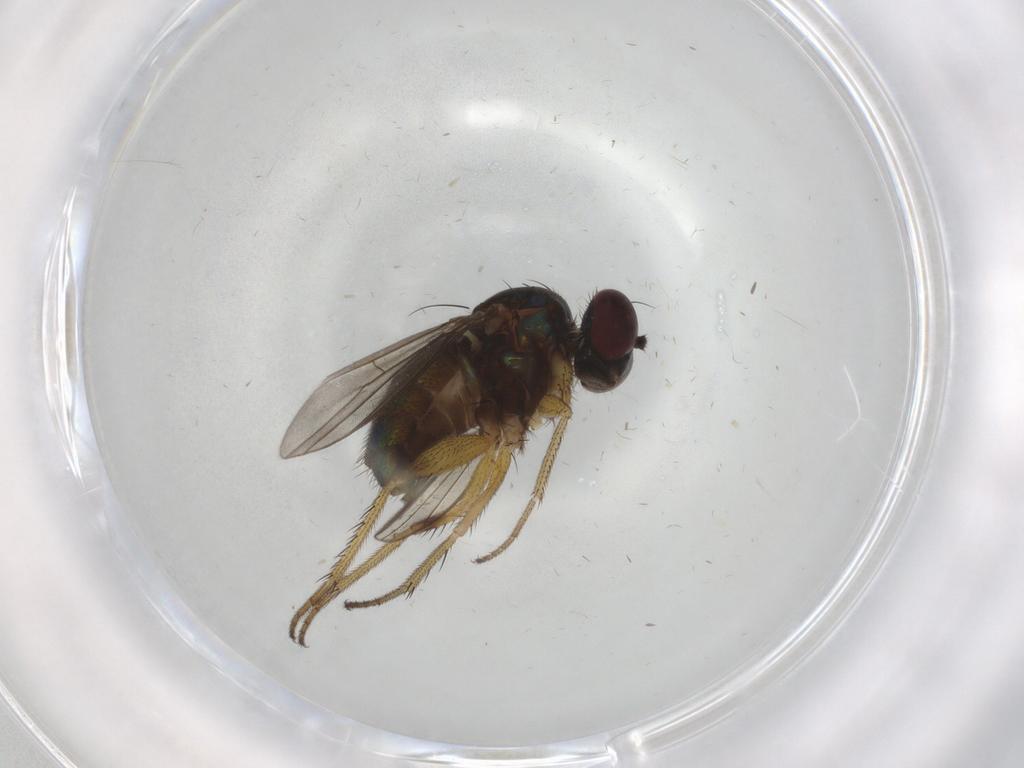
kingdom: Animalia
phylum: Arthropoda
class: Insecta
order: Diptera
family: Dolichopodidae
